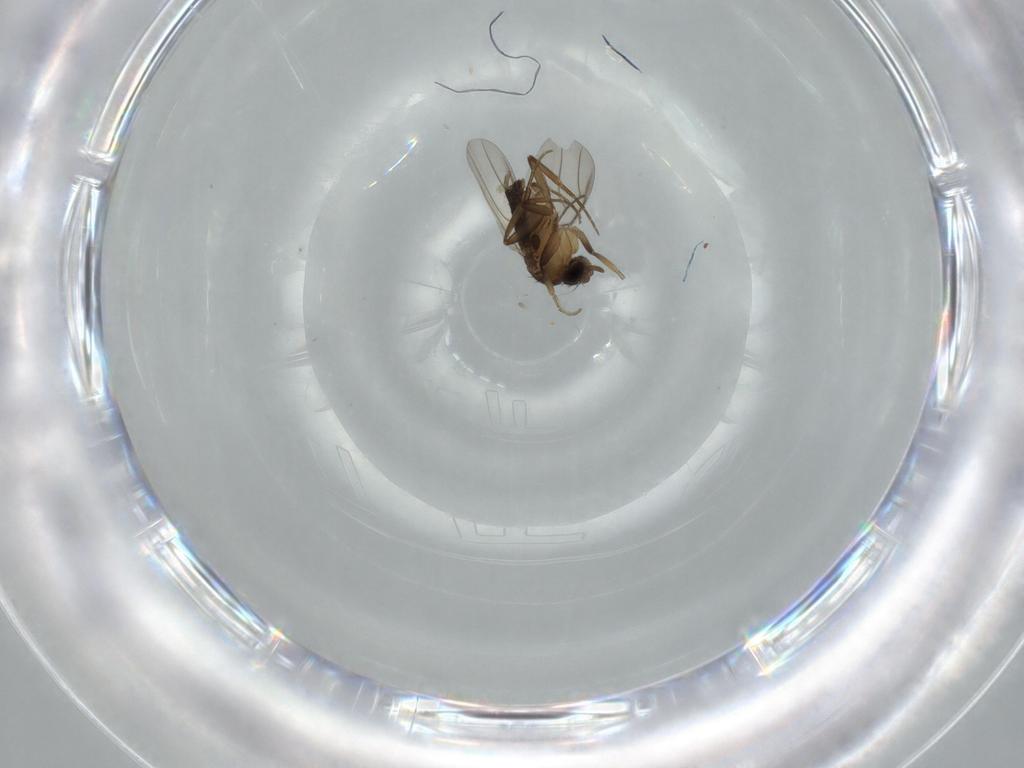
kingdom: Animalia
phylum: Arthropoda
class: Insecta
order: Diptera
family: Phoridae
